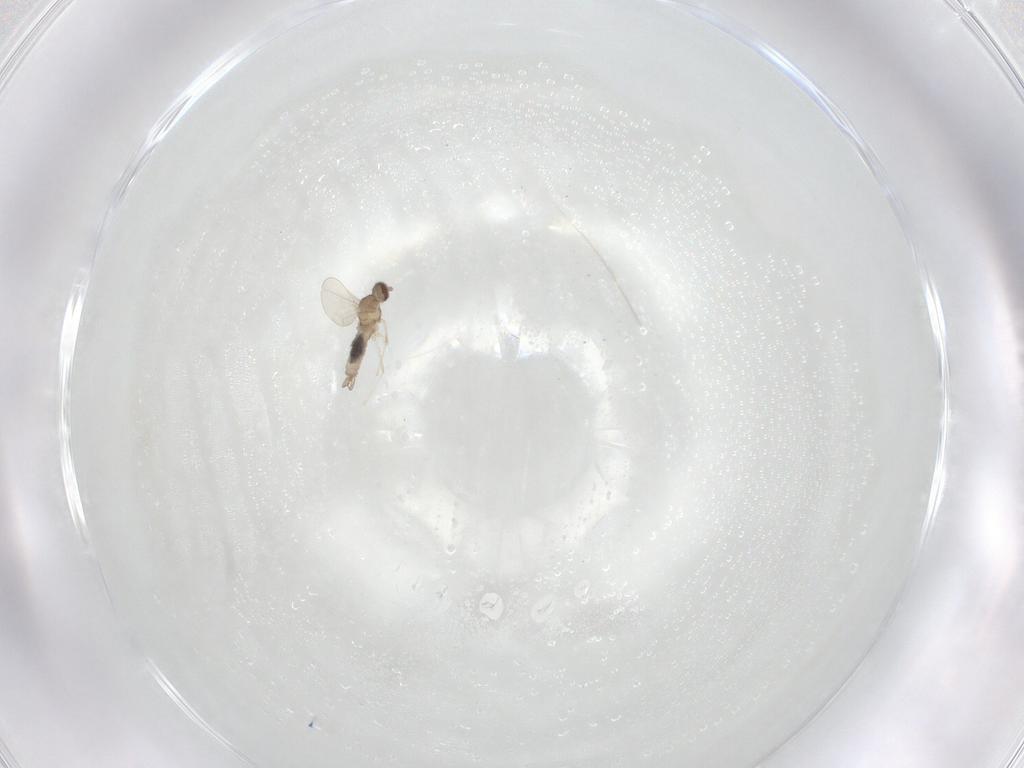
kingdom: Animalia
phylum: Arthropoda
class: Insecta
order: Diptera
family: Cecidomyiidae
